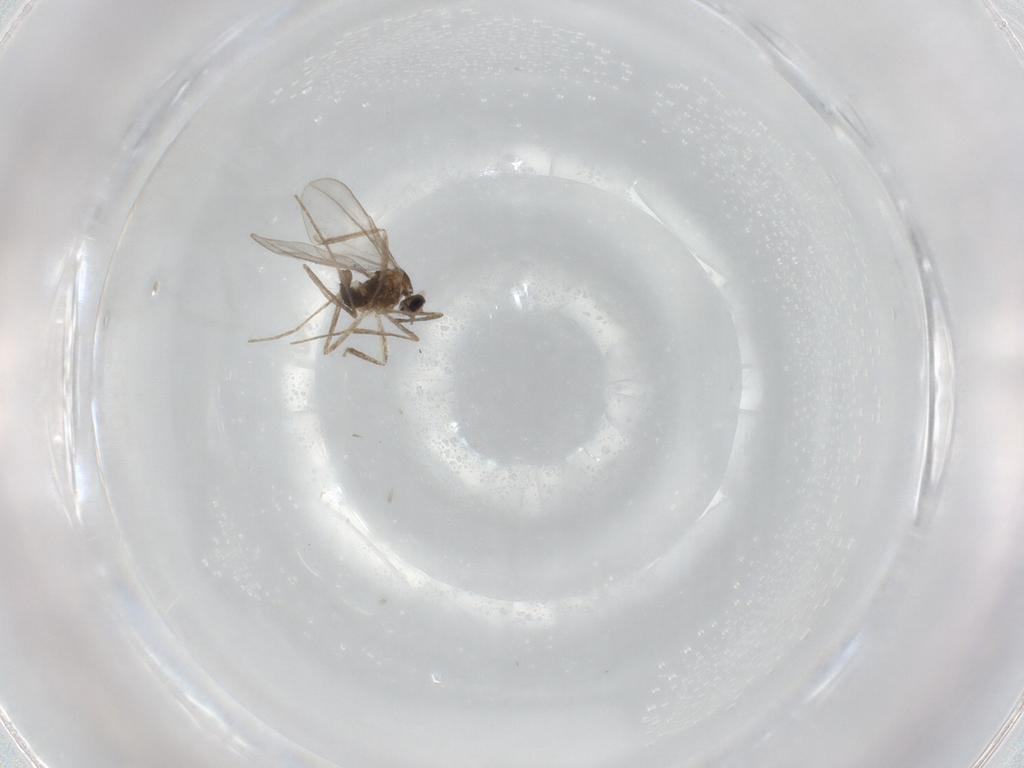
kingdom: Animalia
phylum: Arthropoda
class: Insecta
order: Diptera
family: Cecidomyiidae
